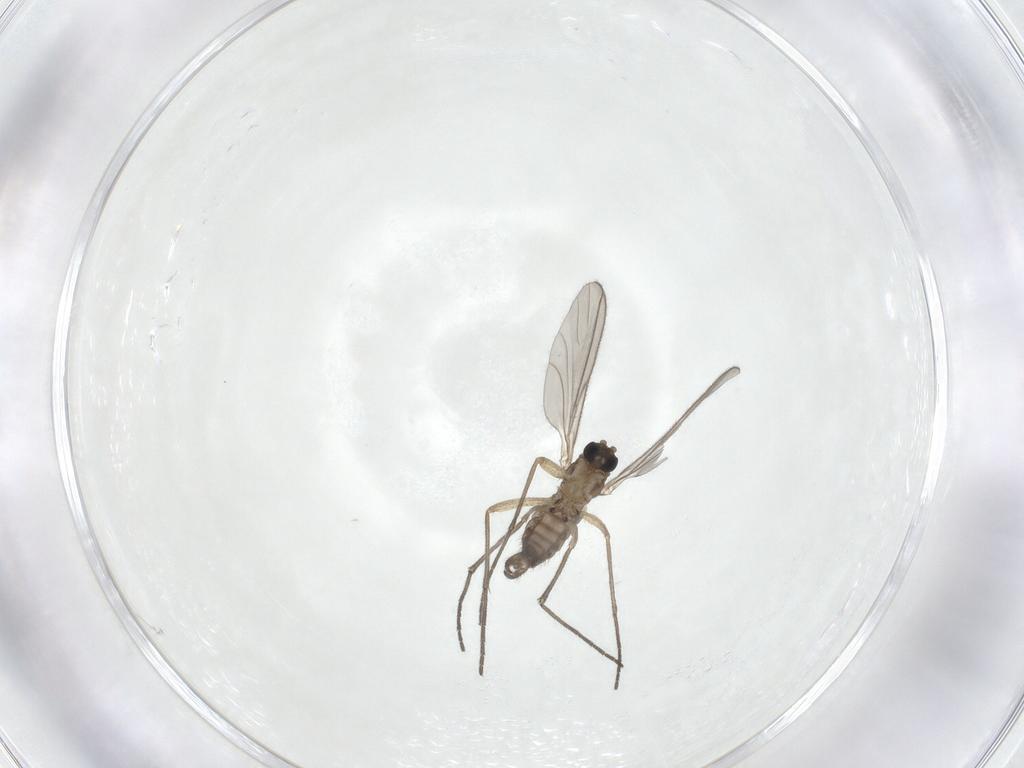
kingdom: Animalia
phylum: Arthropoda
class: Insecta
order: Diptera
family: Sciaridae
